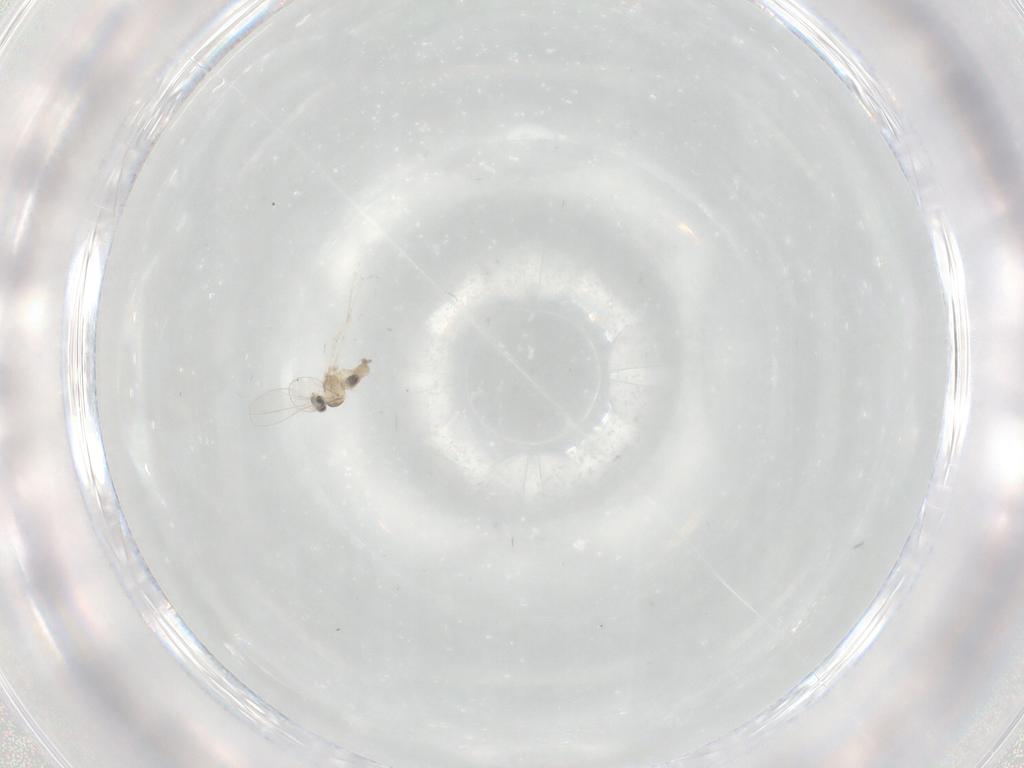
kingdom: Animalia
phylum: Arthropoda
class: Insecta
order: Diptera
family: Cecidomyiidae
